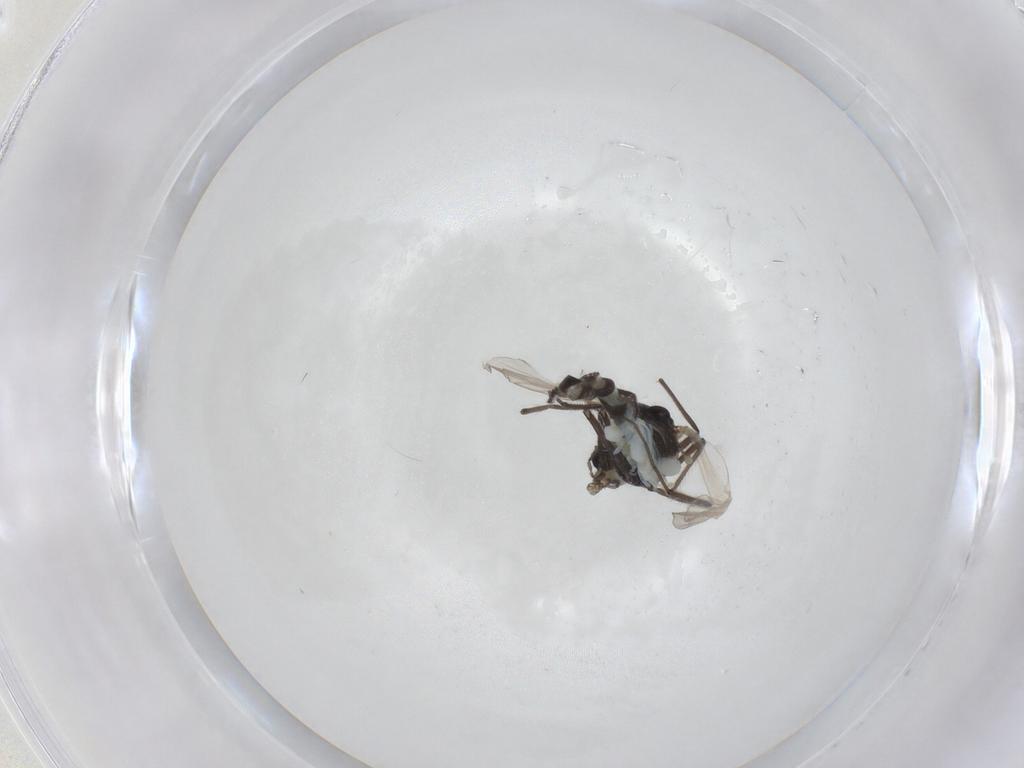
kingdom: Animalia
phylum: Arthropoda
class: Insecta
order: Diptera
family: Chironomidae
